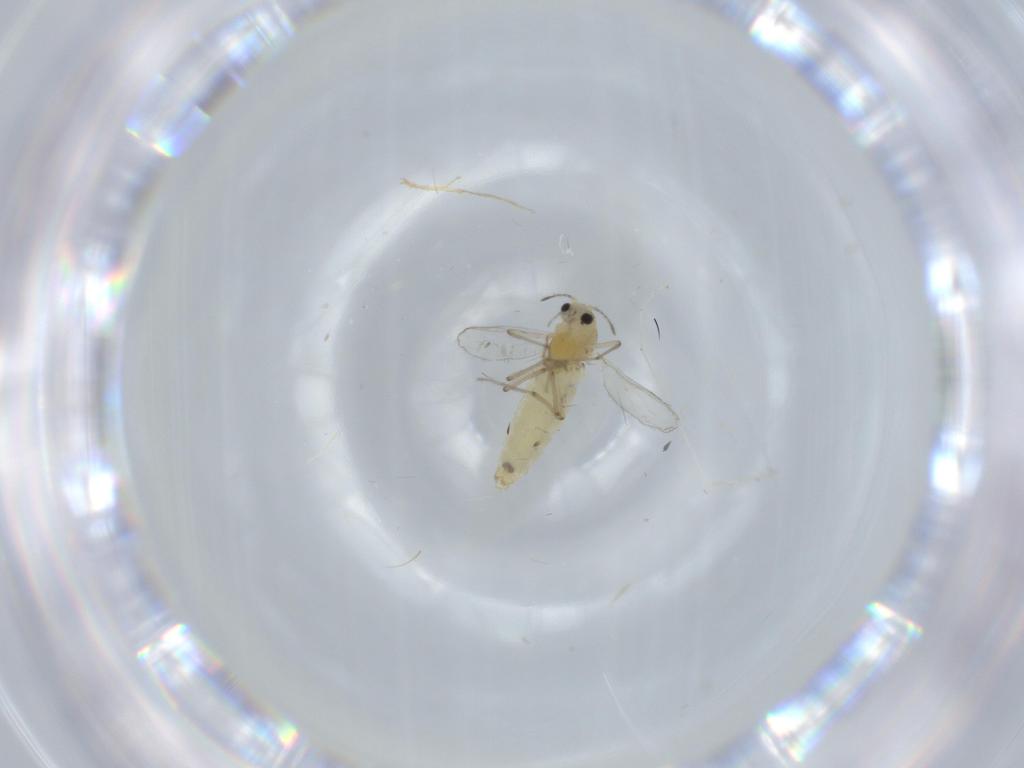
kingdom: Animalia
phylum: Arthropoda
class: Insecta
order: Diptera
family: Chironomidae
